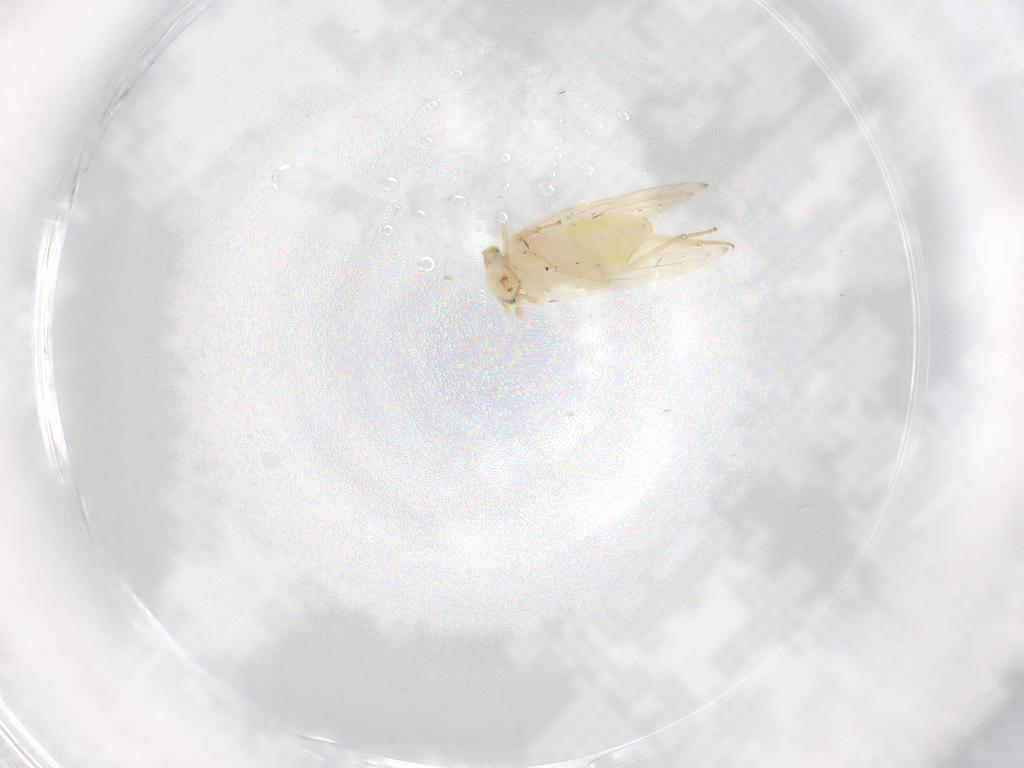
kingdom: Animalia
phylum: Arthropoda
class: Insecta
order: Psocodea
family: Lepidopsocidae
